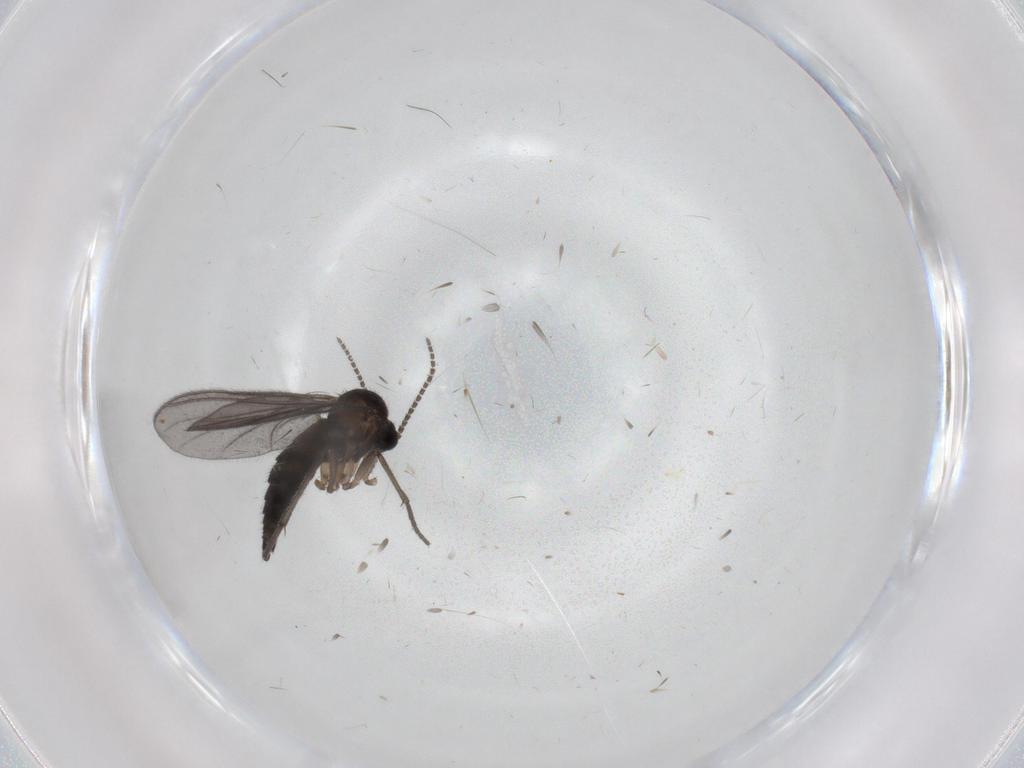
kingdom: Animalia
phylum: Arthropoda
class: Insecta
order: Diptera
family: Sciaridae
